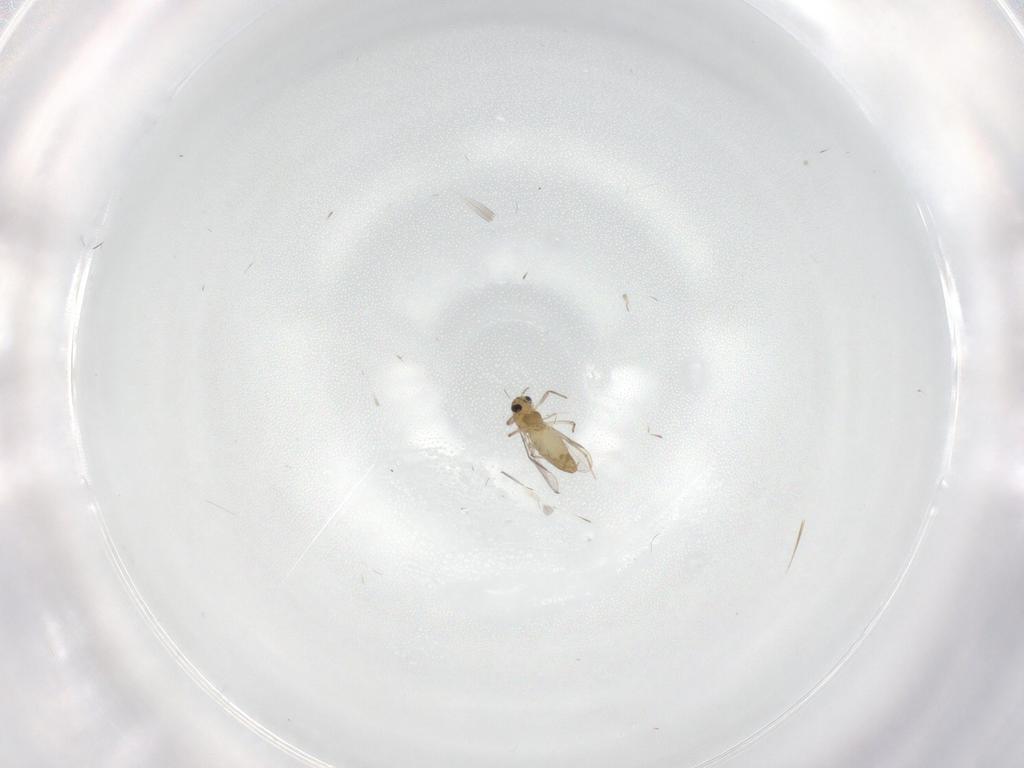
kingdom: Animalia
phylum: Arthropoda
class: Insecta
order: Diptera
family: Chironomidae
